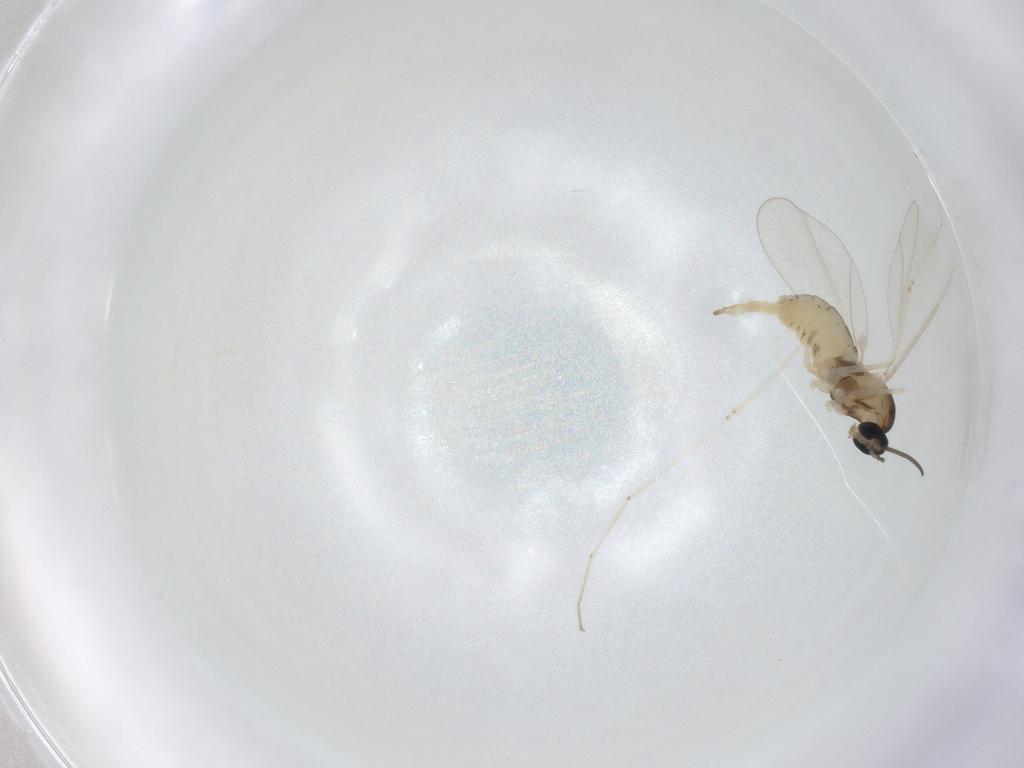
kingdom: Animalia
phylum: Arthropoda
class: Insecta
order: Diptera
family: Cecidomyiidae
